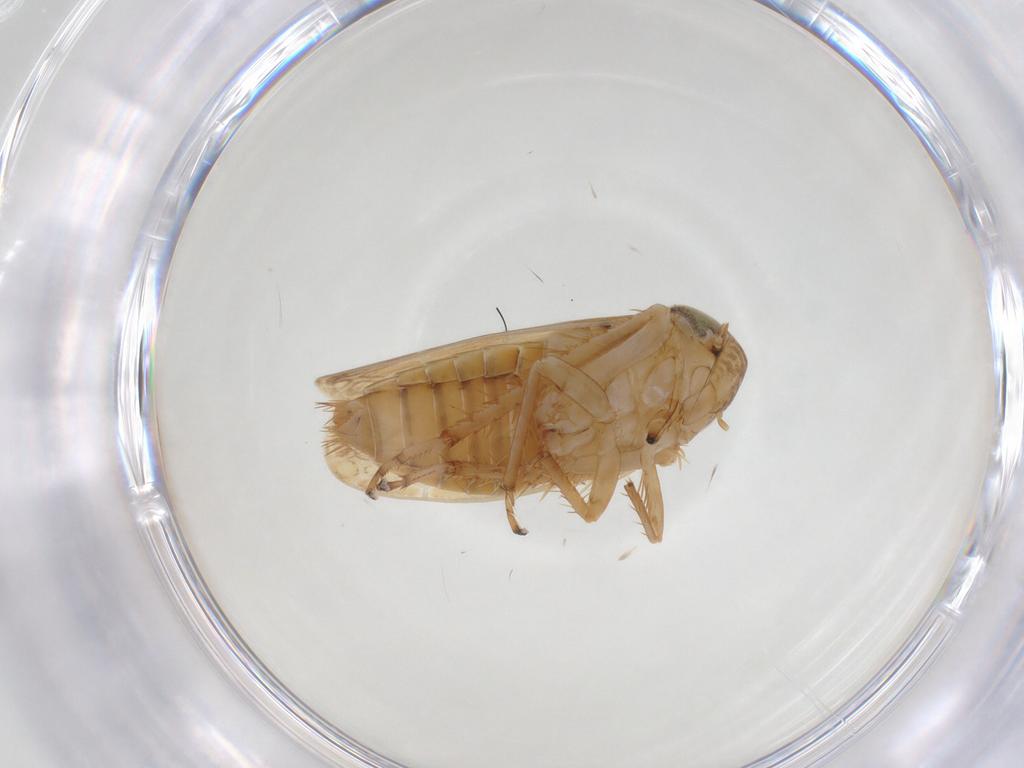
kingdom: Animalia
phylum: Arthropoda
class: Insecta
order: Hemiptera
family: Cicadellidae
